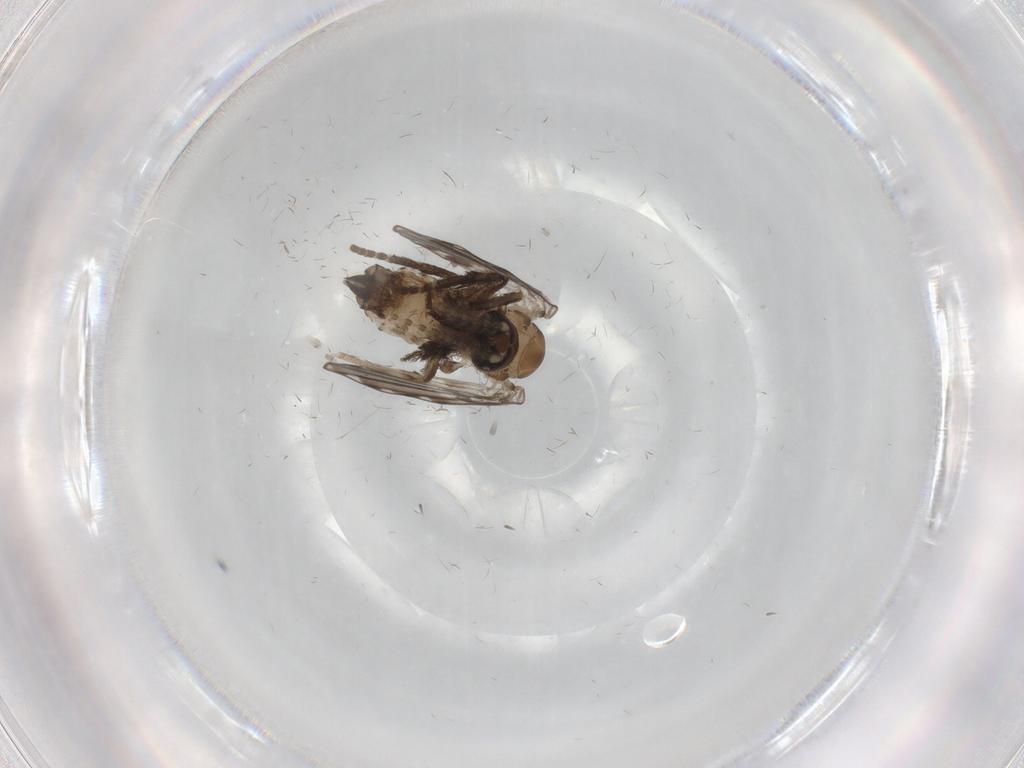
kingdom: Animalia
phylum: Arthropoda
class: Insecta
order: Diptera
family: Psychodidae
